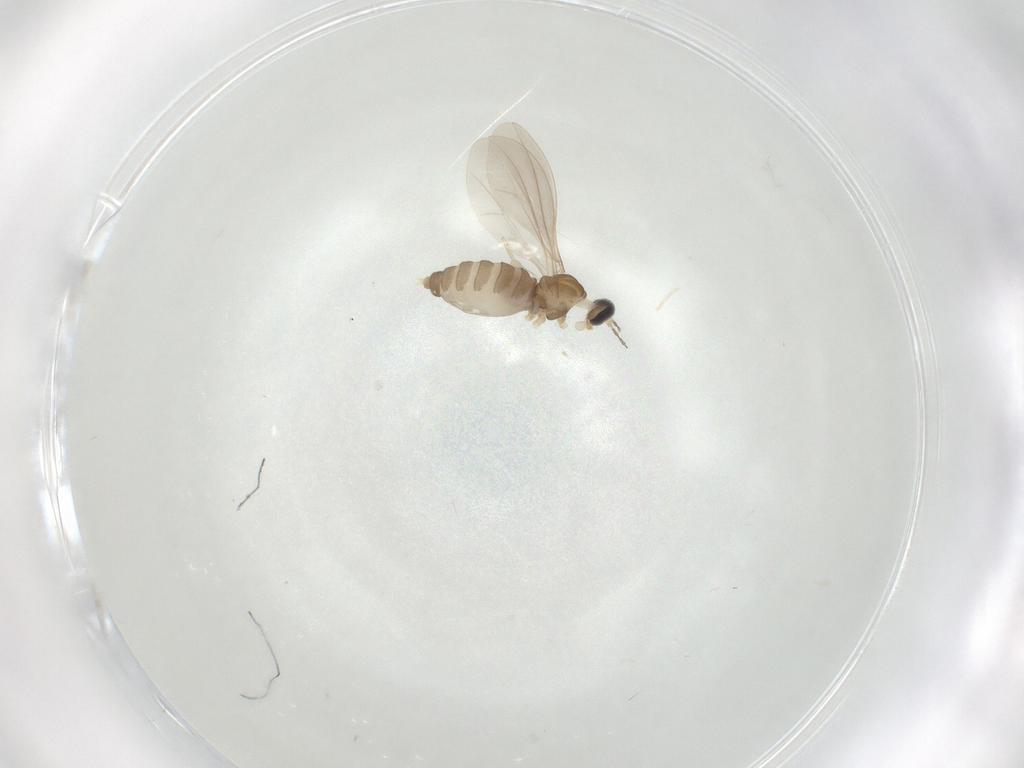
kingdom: Animalia
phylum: Arthropoda
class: Insecta
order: Diptera
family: Cecidomyiidae
